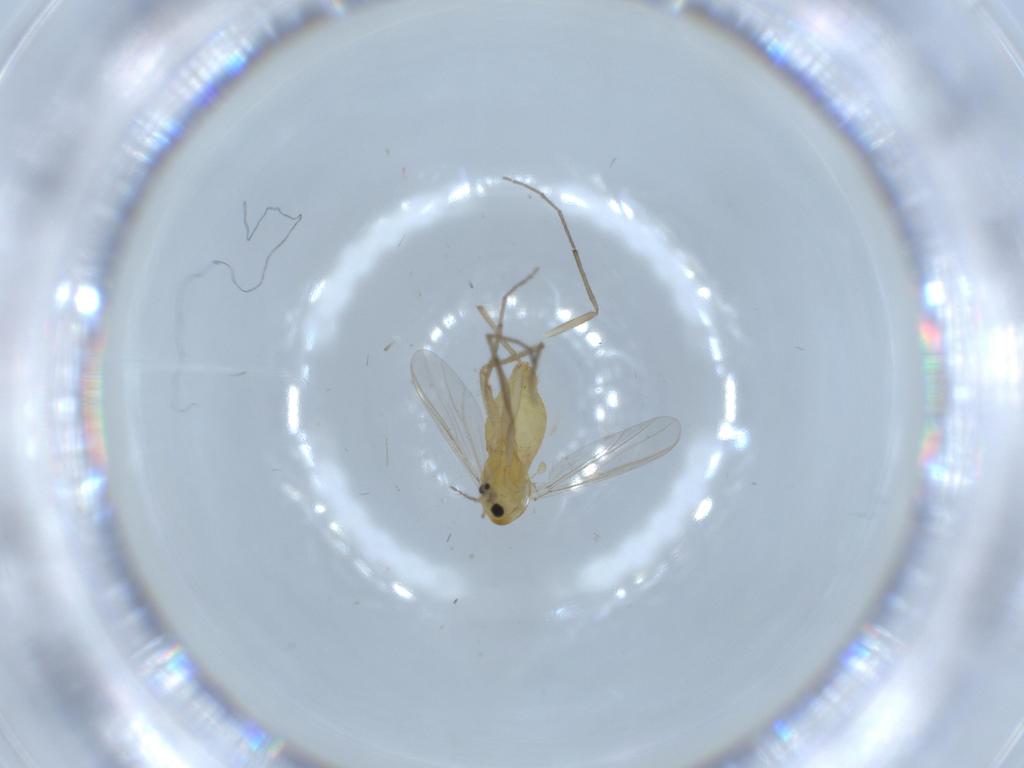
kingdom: Animalia
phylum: Arthropoda
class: Insecta
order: Diptera
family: Chironomidae
